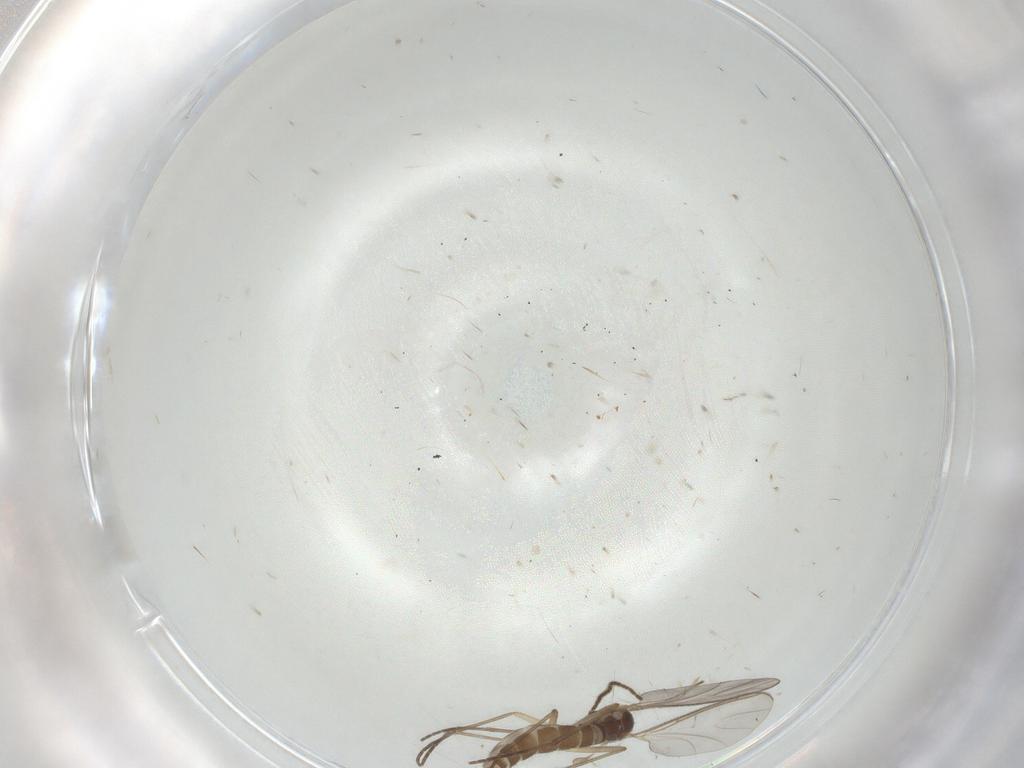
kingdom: Animalia
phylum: Arthropoda
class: Insecta
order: Diptera
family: Sciaridae
